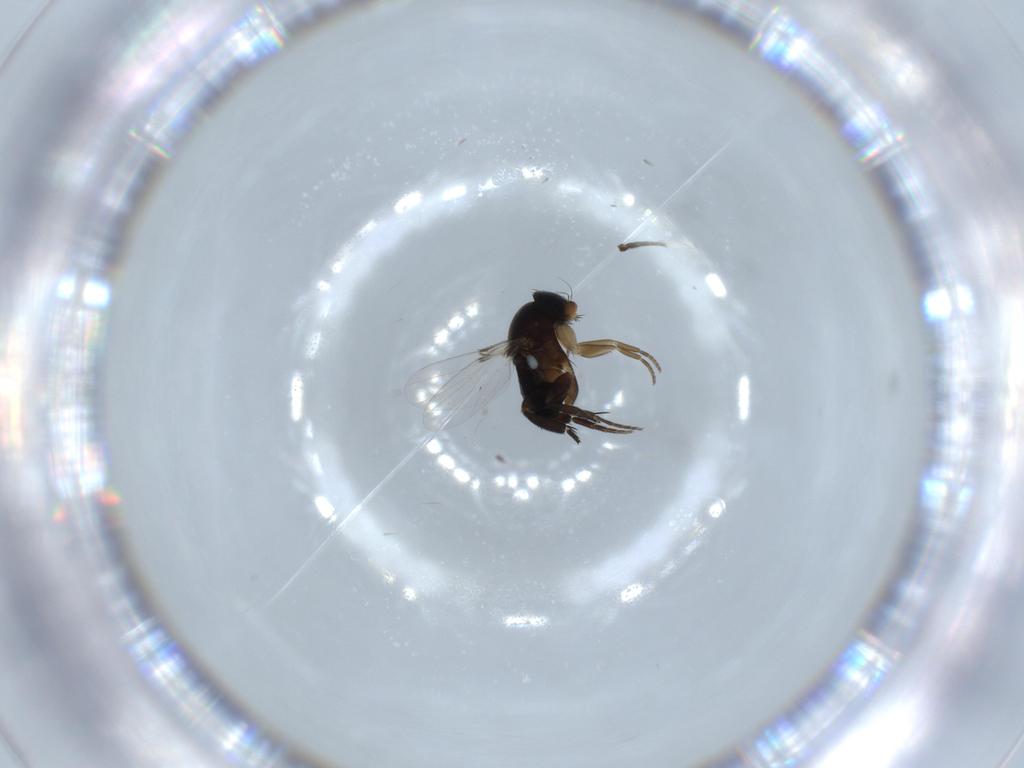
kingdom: Animalia
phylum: Arthropoda
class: Insecta
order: Diptera
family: Phoridae
